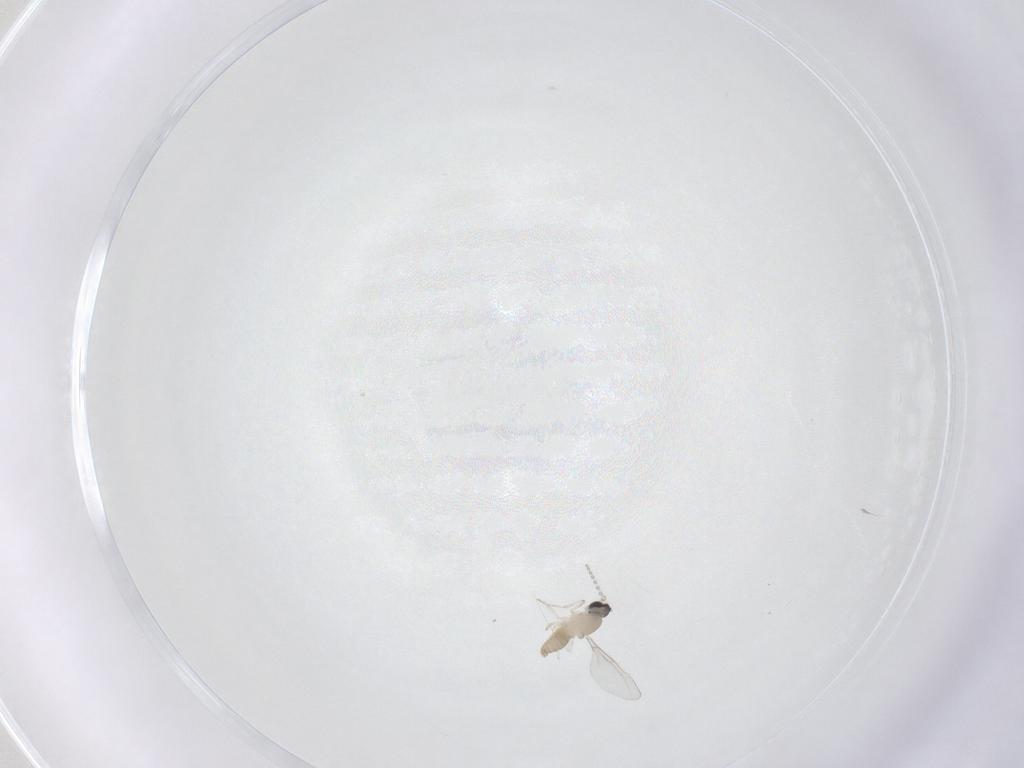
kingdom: Animalia
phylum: Arthropoda
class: Insecta
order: Diptera
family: Cecidomyiidae
